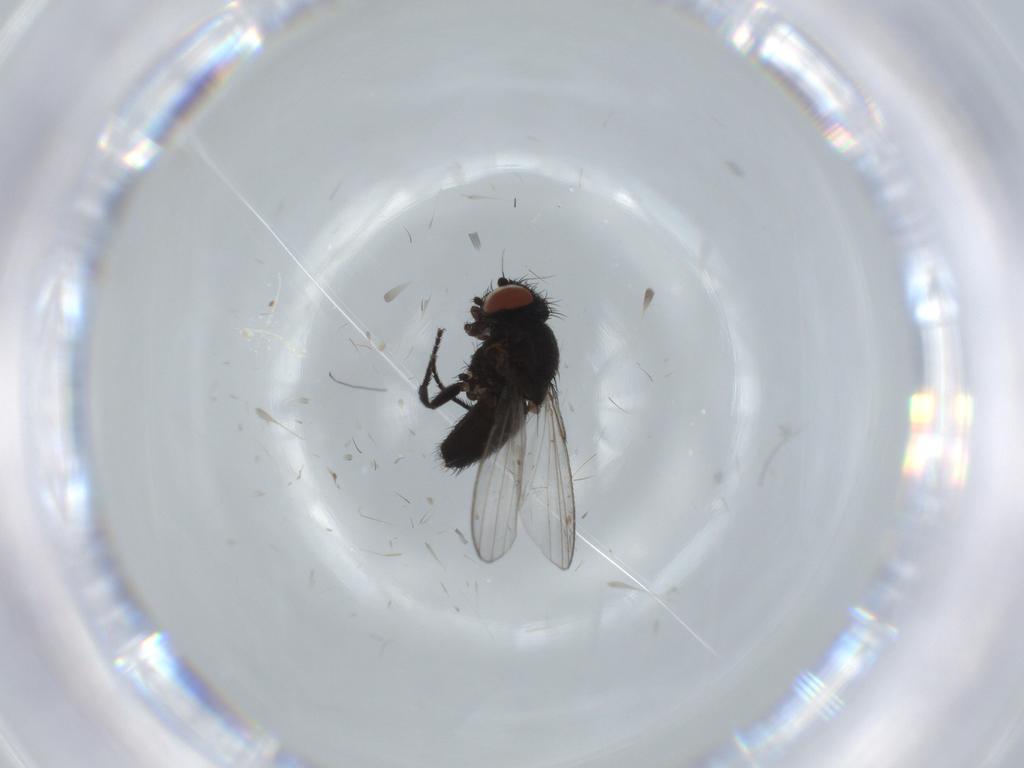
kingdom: Animalia
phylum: Arthropoda
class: Insecta
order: Diptera
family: Milichiidae
